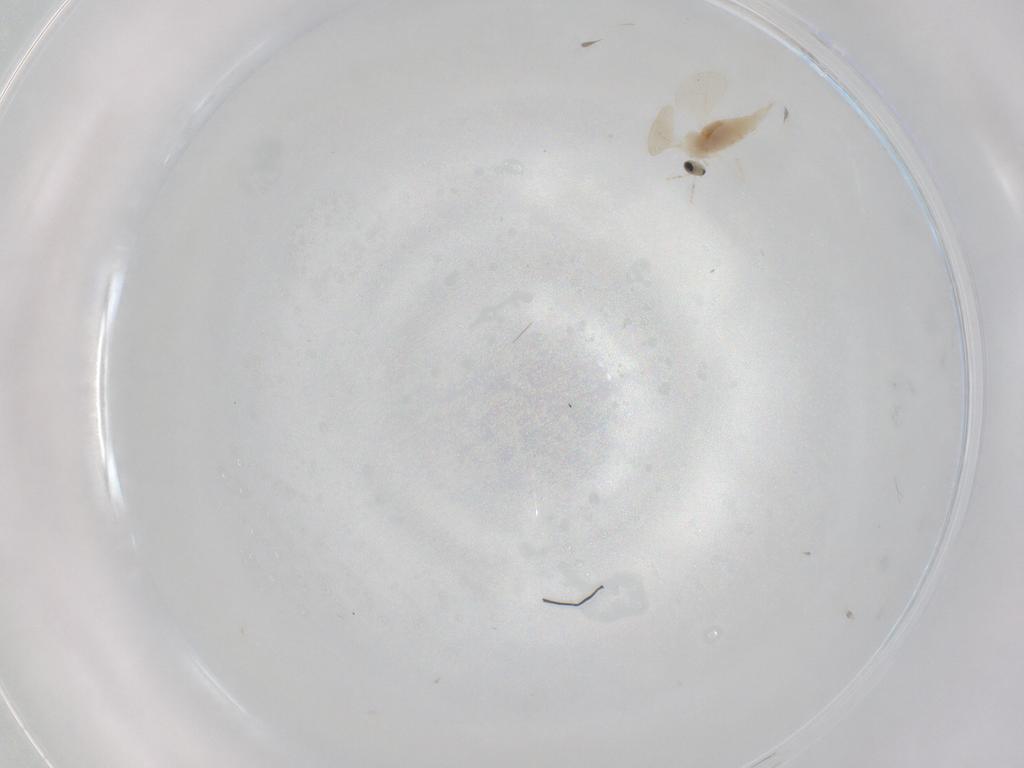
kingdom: Animalia
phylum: Arthropoda
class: Insecta
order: Diptera
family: Cecidomyiidae
